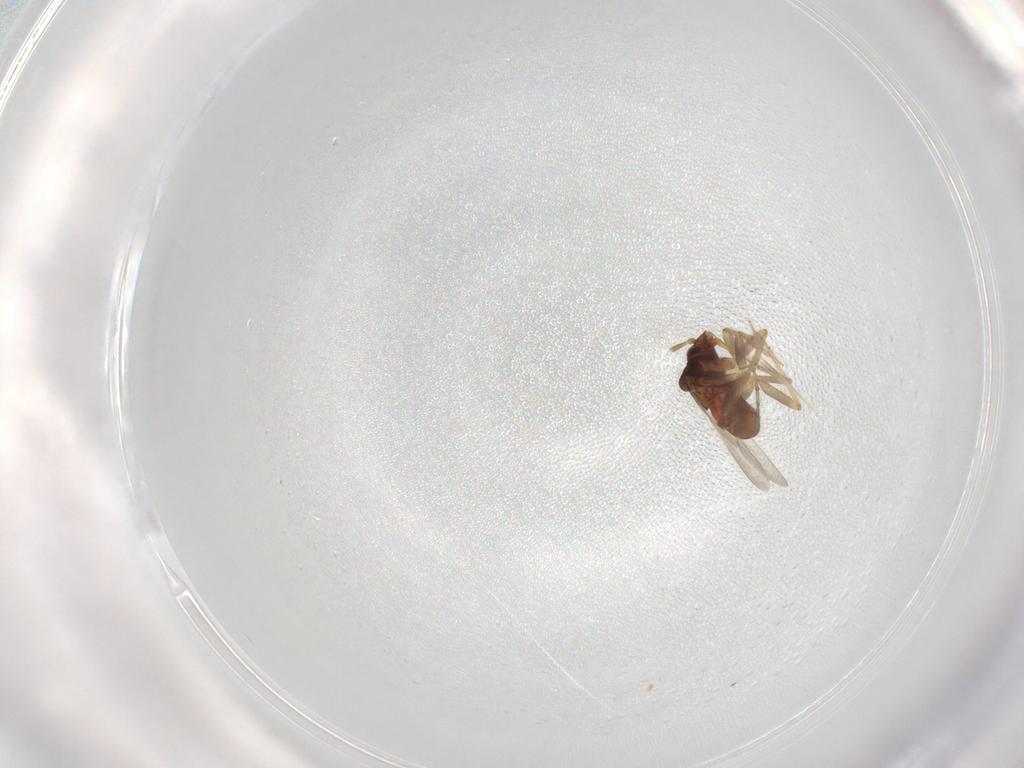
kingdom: Animalia
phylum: Arthropoda
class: Insecta
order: Hemiptera
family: Ceratocombidae
